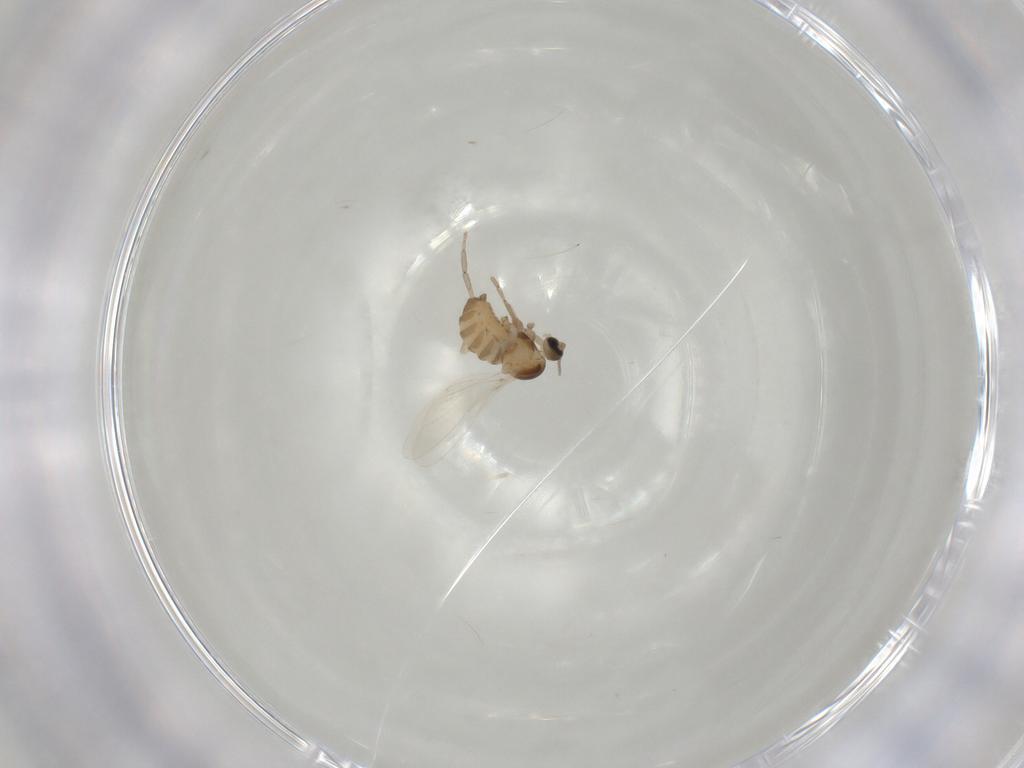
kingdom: Animalia
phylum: Arthropoda
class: Insecta
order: Diptera
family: Cecidomyiidae
